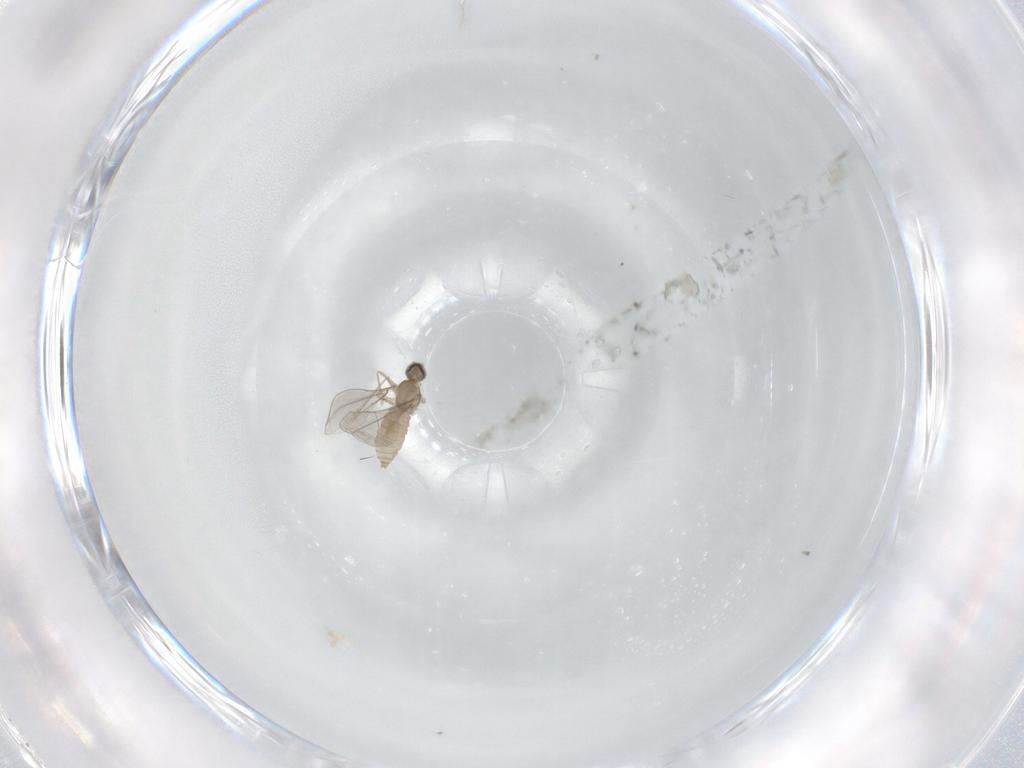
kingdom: Animalia
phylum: Arthropoda
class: Insecta
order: Diptera
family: Cecidomyiidae
